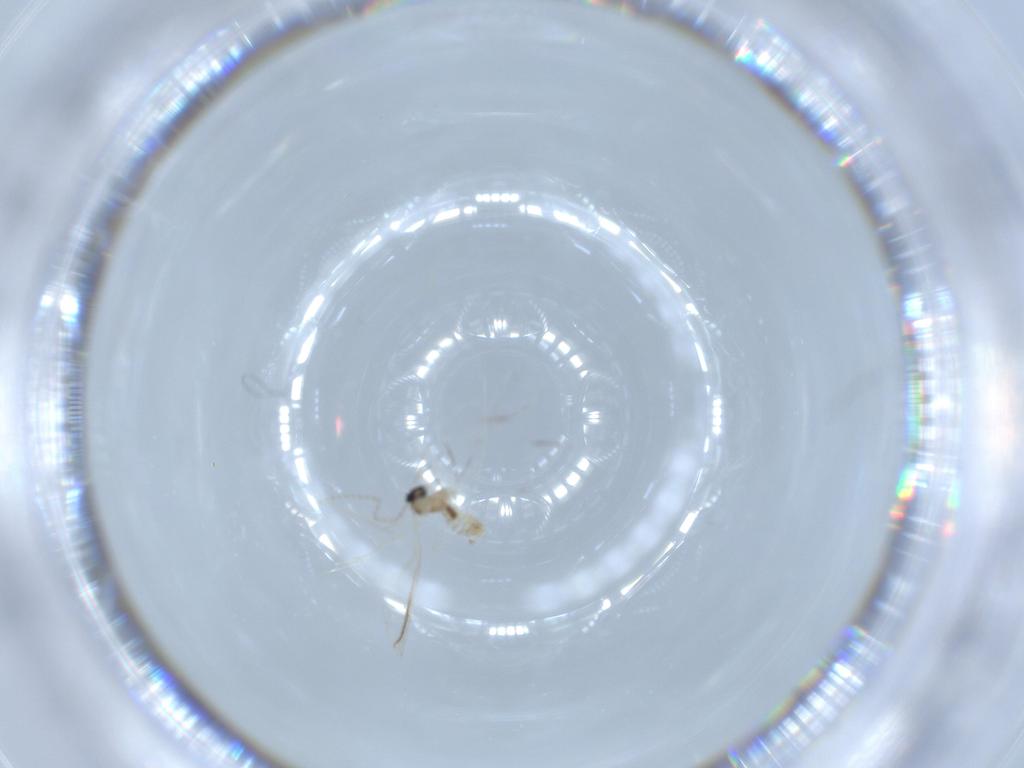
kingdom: Animalia
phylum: Arthropoda
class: Insecta
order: Diptera
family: Cecidomyiidae
